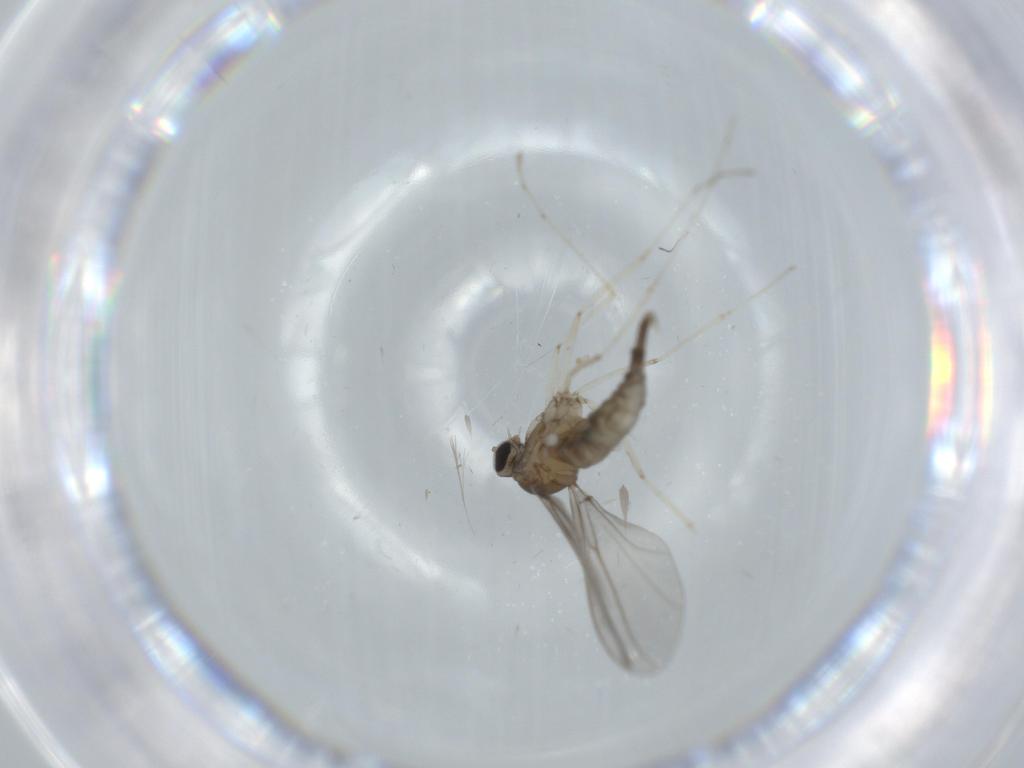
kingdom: Animalia
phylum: Arthropoda
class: Insecta
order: Diptera
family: Cecidomyiidae
